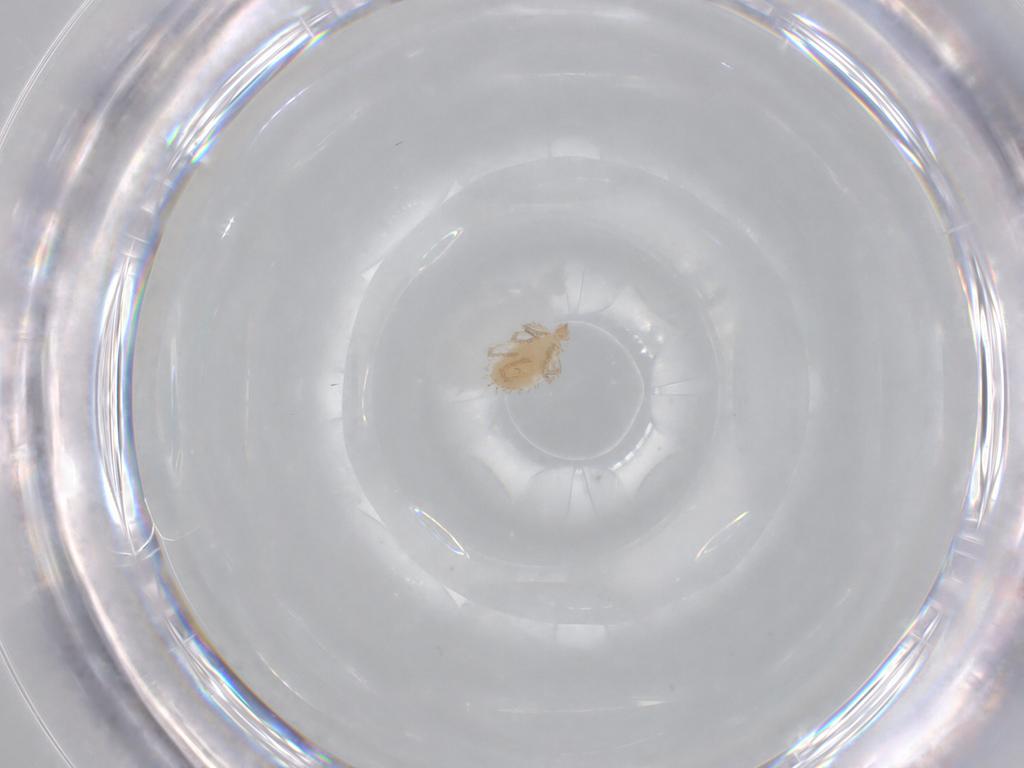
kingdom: Animalia
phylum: Arthropoda
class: Arachnida
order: Trombidiformes
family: Erythraeidae
